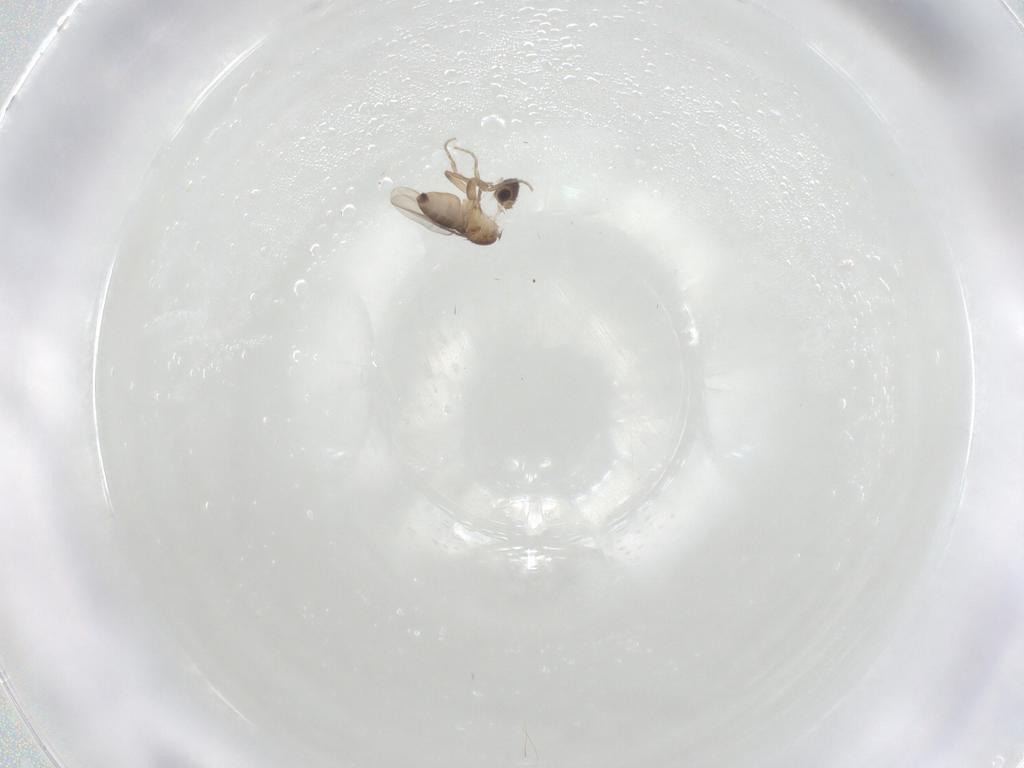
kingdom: Animalia
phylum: Arthropoda
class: Insecta
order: Diptera
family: Phoridae
